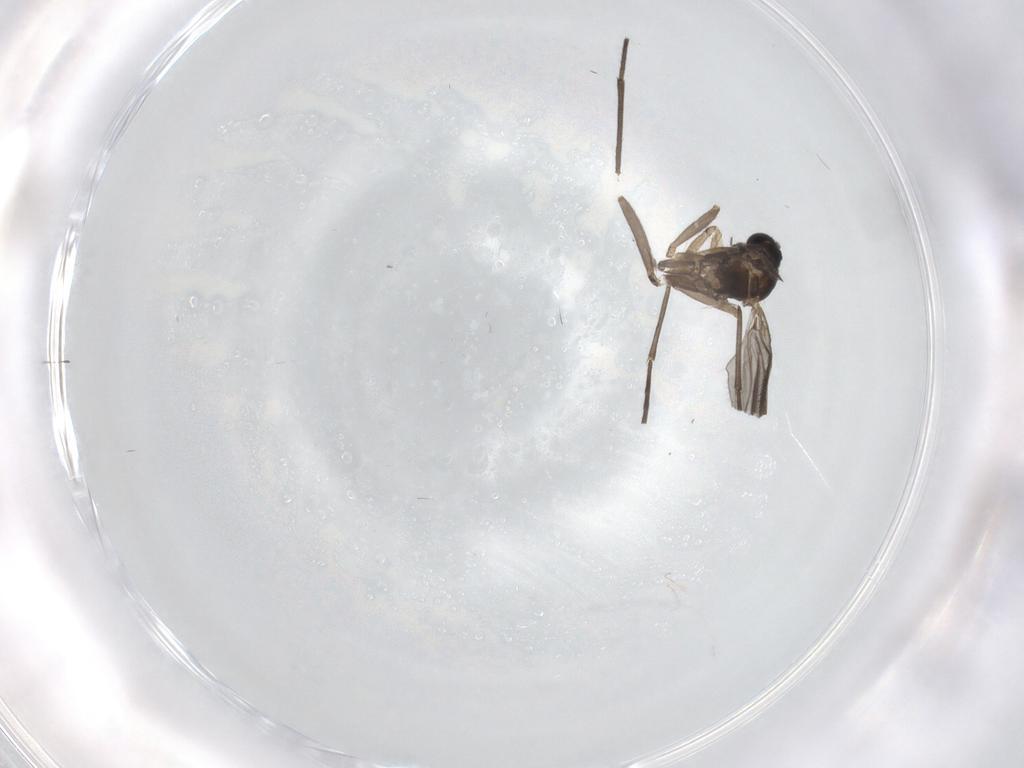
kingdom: Animalia
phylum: Arthropoda
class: Insecta
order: Diptera
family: Sciaridae
